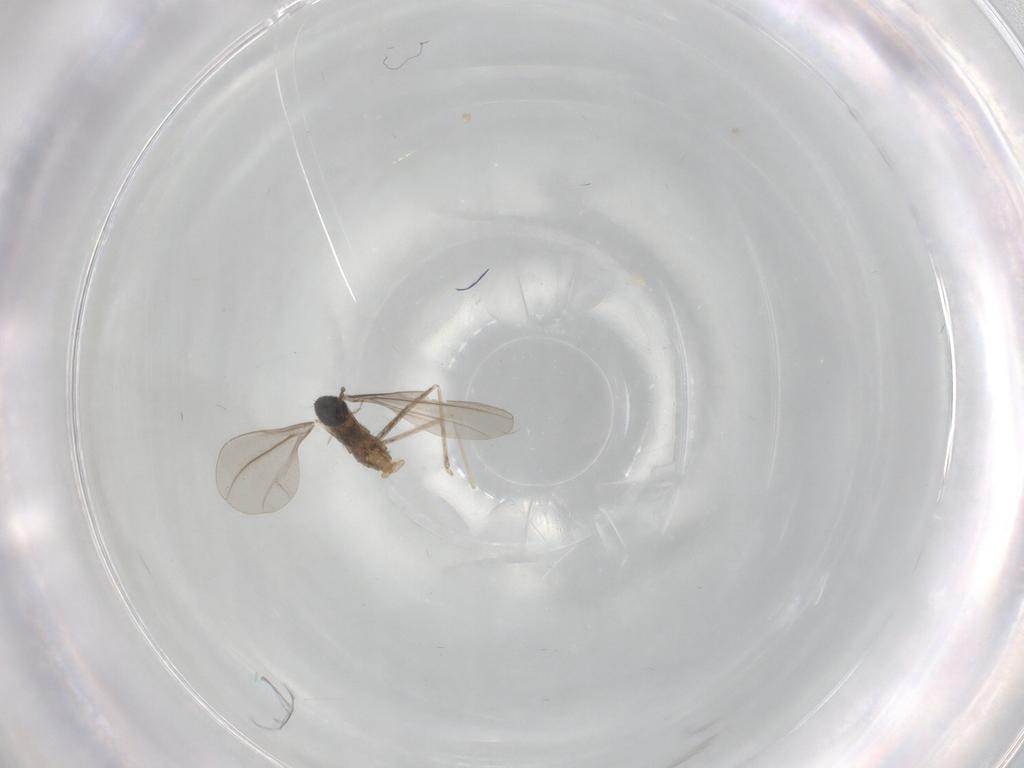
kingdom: Animalia
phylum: Arthropoda
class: Insecta
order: Diptera
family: Cecidomyiidae
